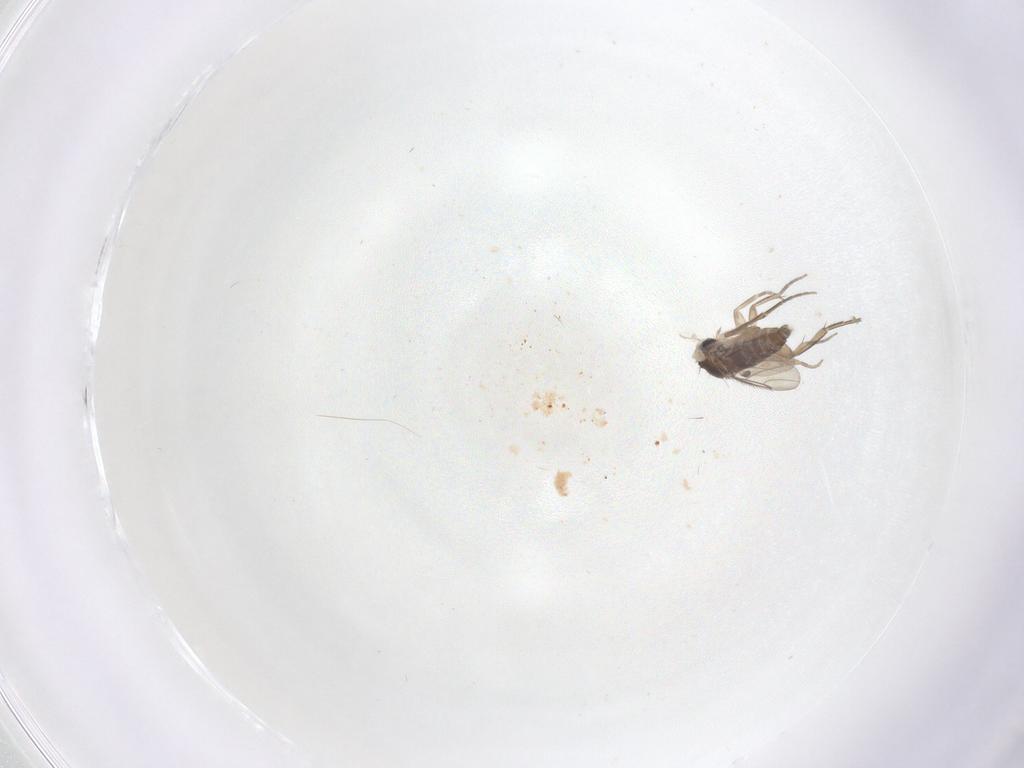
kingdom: Animalia
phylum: Arthropoda
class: Insecta
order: Diptera
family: Phoridae
